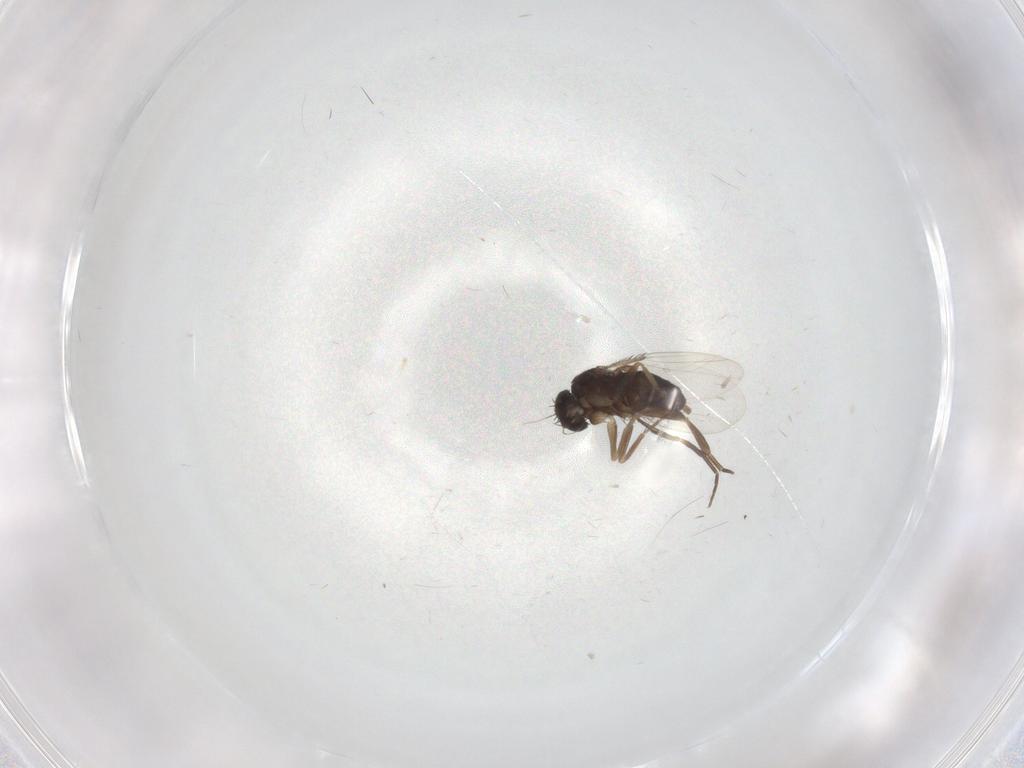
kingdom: Animalia
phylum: Arthropoda
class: Insecta
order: Diptera
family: Phoridae
